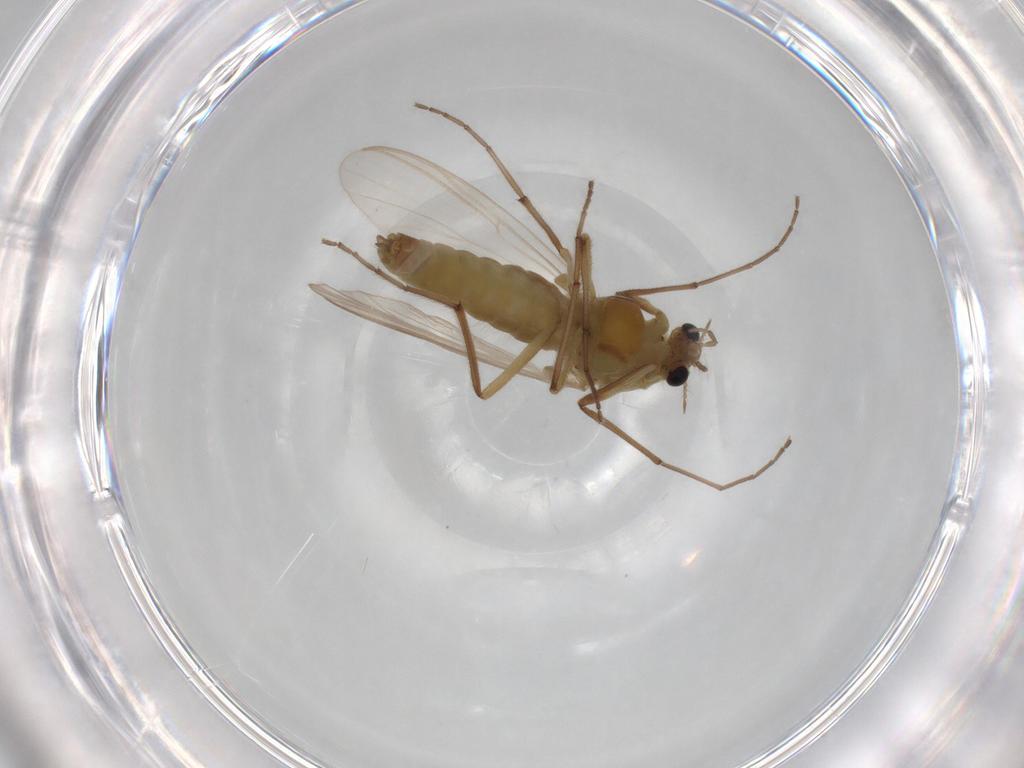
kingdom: Animalia
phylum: Arthropoda
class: Insecta
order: Diptera
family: Chironomidae
